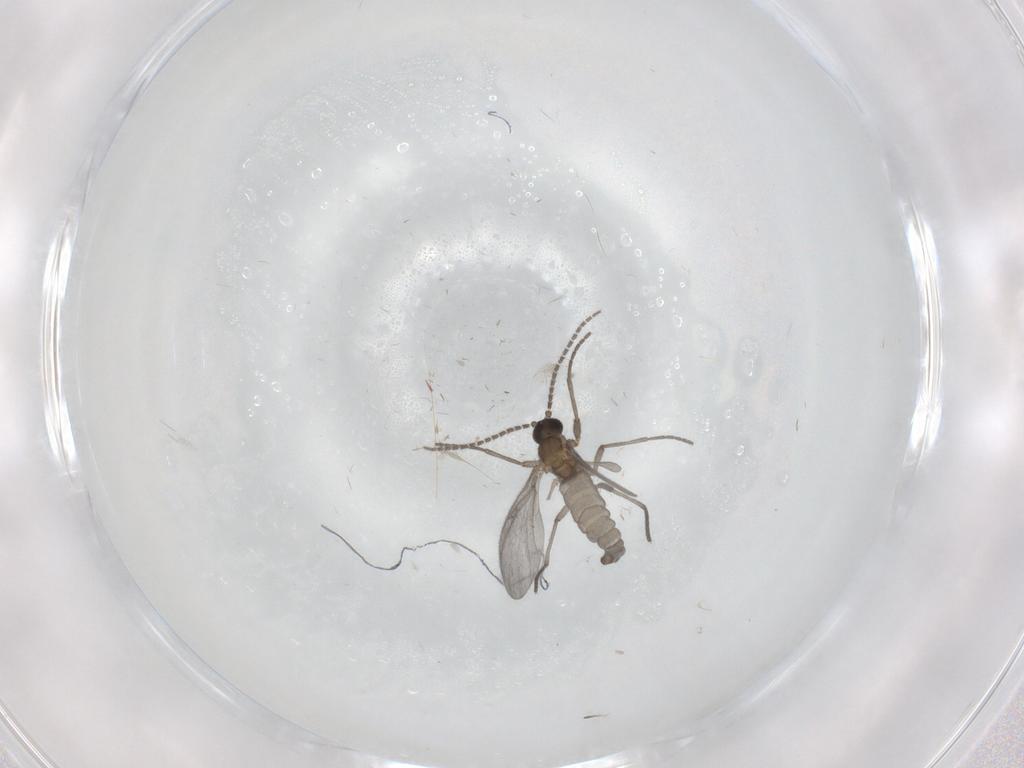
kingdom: Animalia
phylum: Arthropoda
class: Insecta
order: Diptera
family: Sciaridae
